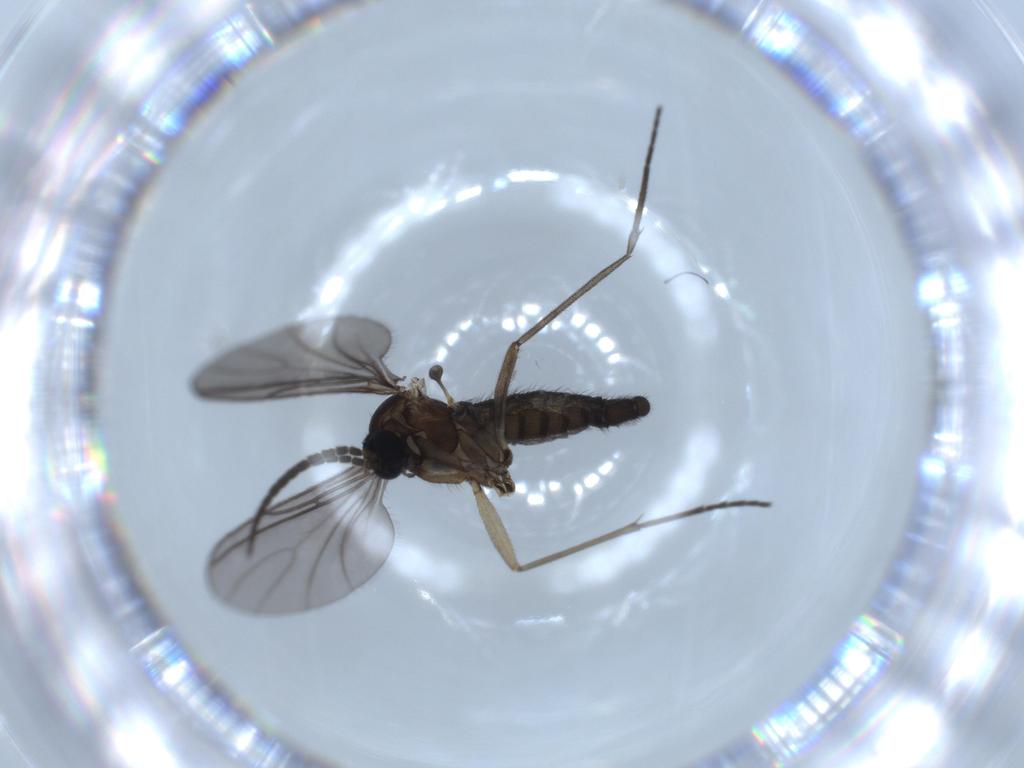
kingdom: Animalia
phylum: Arthropoda
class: Insecta
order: Diptera
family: Sciaridae
